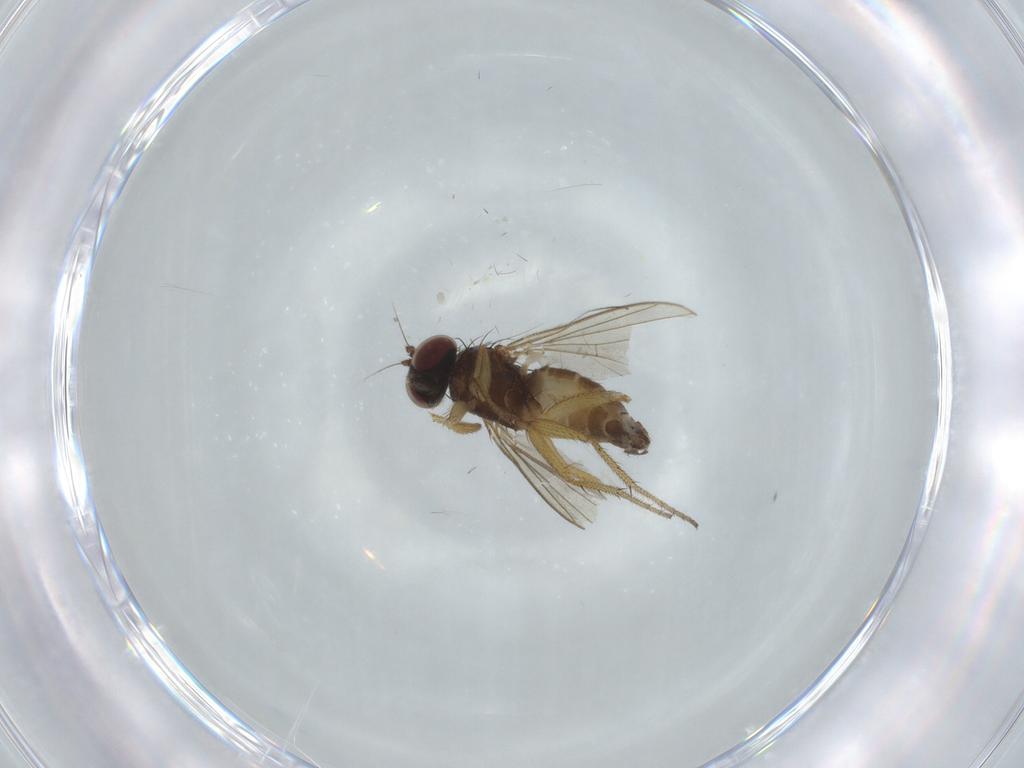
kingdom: Animalia
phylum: Arthropoda
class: Insecta
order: Diptera
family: Dolichopodidae
